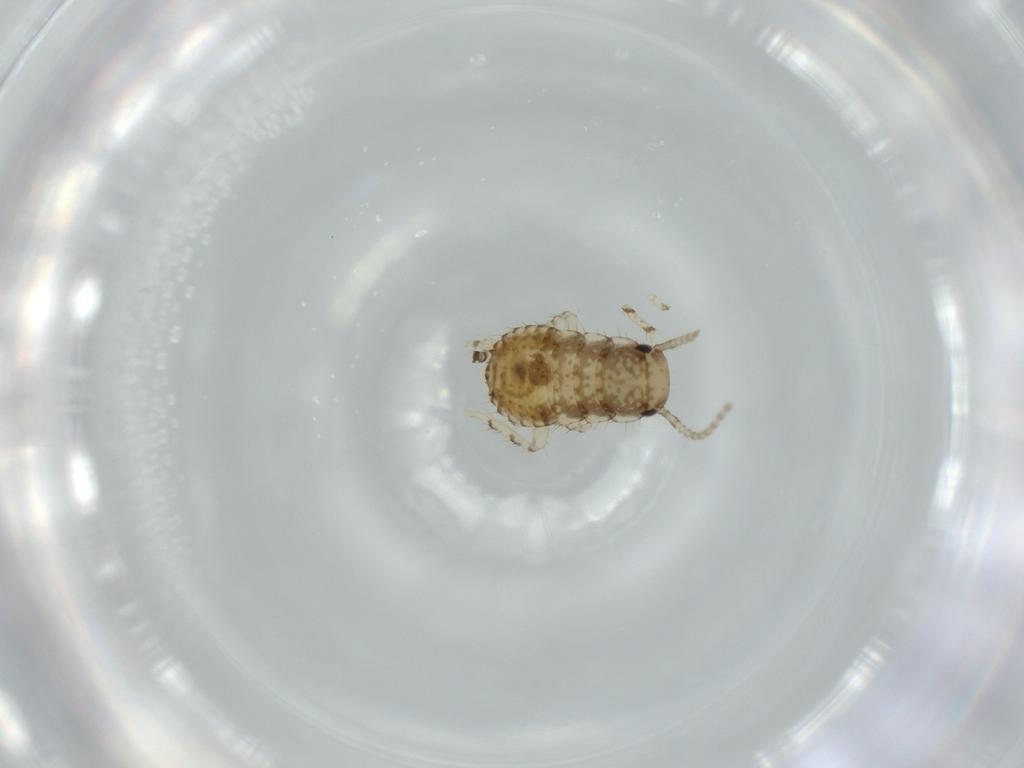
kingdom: Animalia
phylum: Arthropoda
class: Insecta
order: Blattodea
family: Ectobiidae
